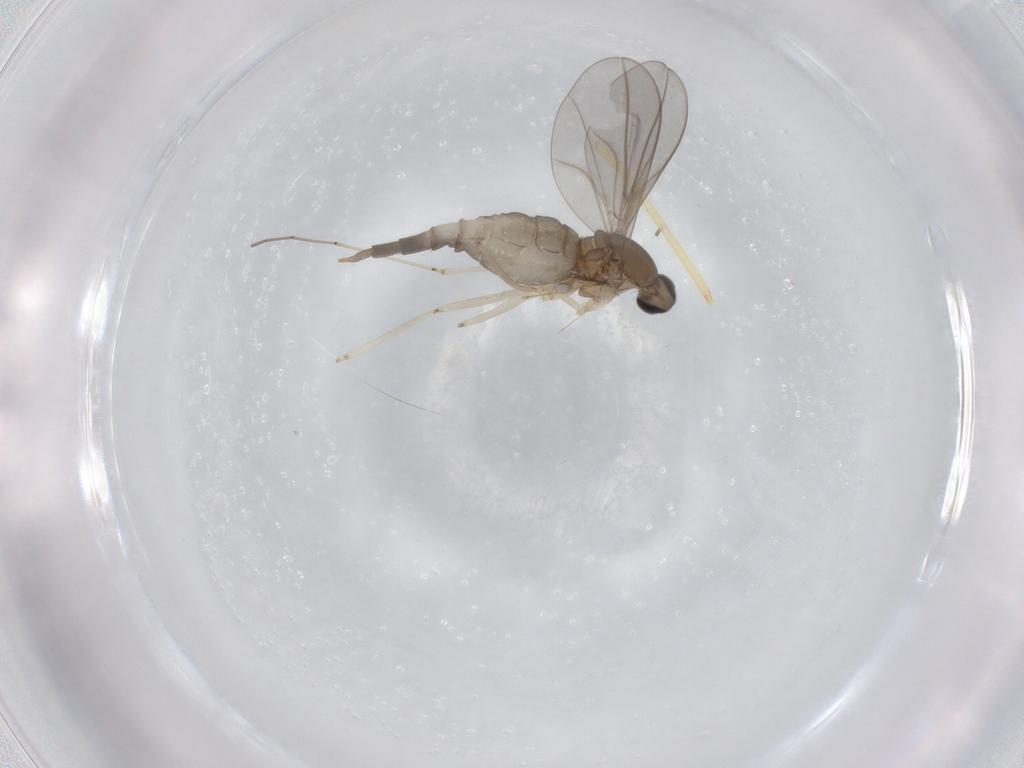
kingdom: Animalia
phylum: Arthropoda
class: Insecta
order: Diptera
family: Cecidomyiidae
